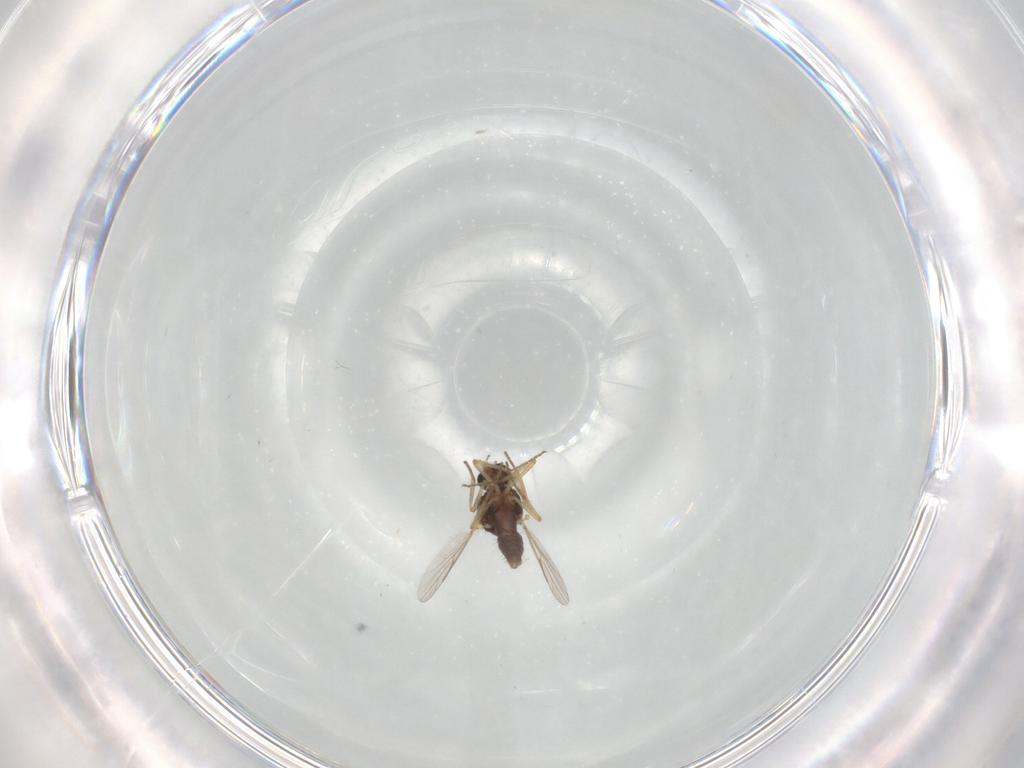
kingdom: Animalia
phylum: Arthropoda
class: Insecta
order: Diptera
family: Ceratopogonidae
